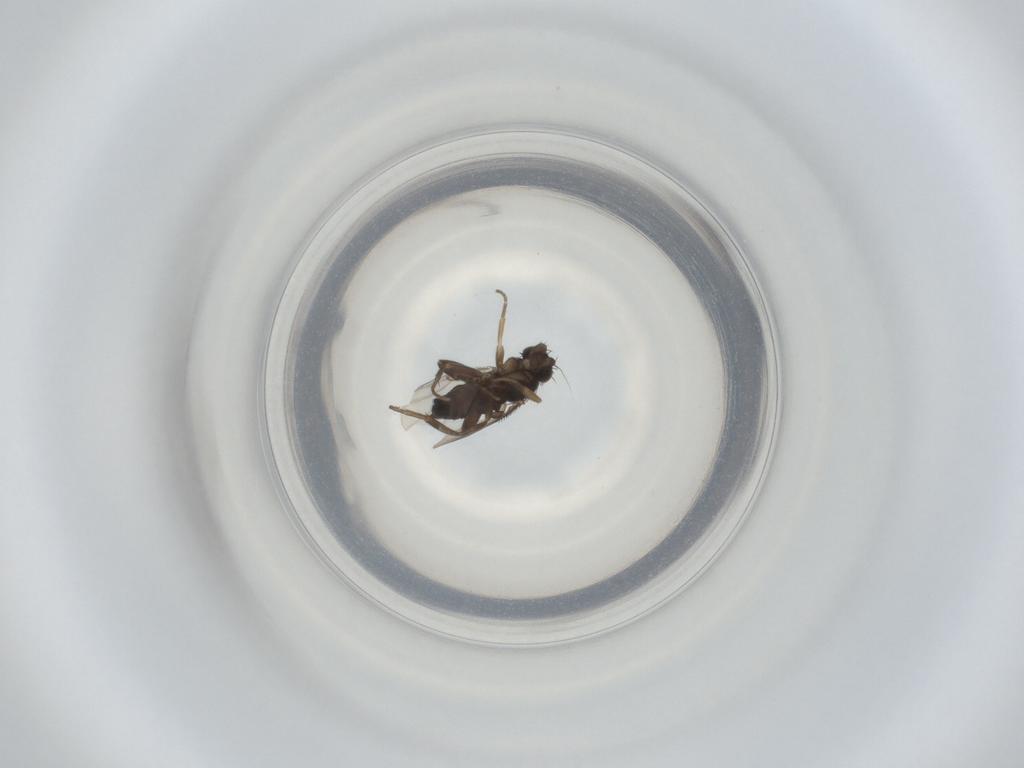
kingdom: Animalia
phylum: Arthropoda
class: Insecta
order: Diptera
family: Phoridae
